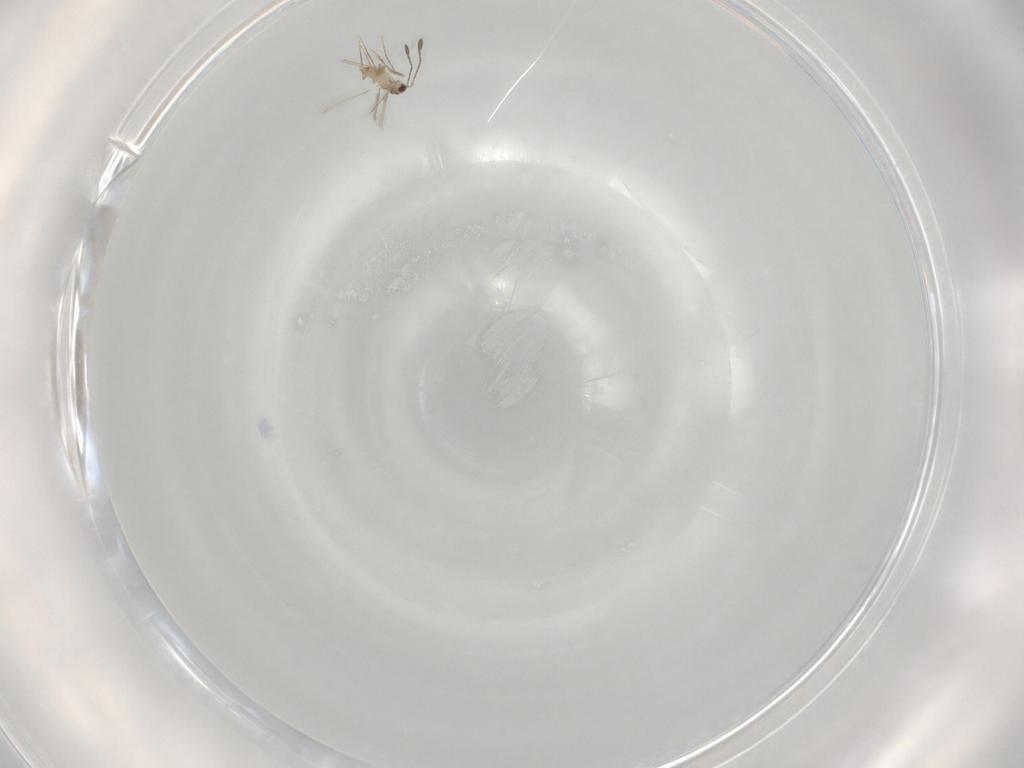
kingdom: Animalia
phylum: Arthropoda
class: Insecta
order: Hymenoptera
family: Mymaridae
